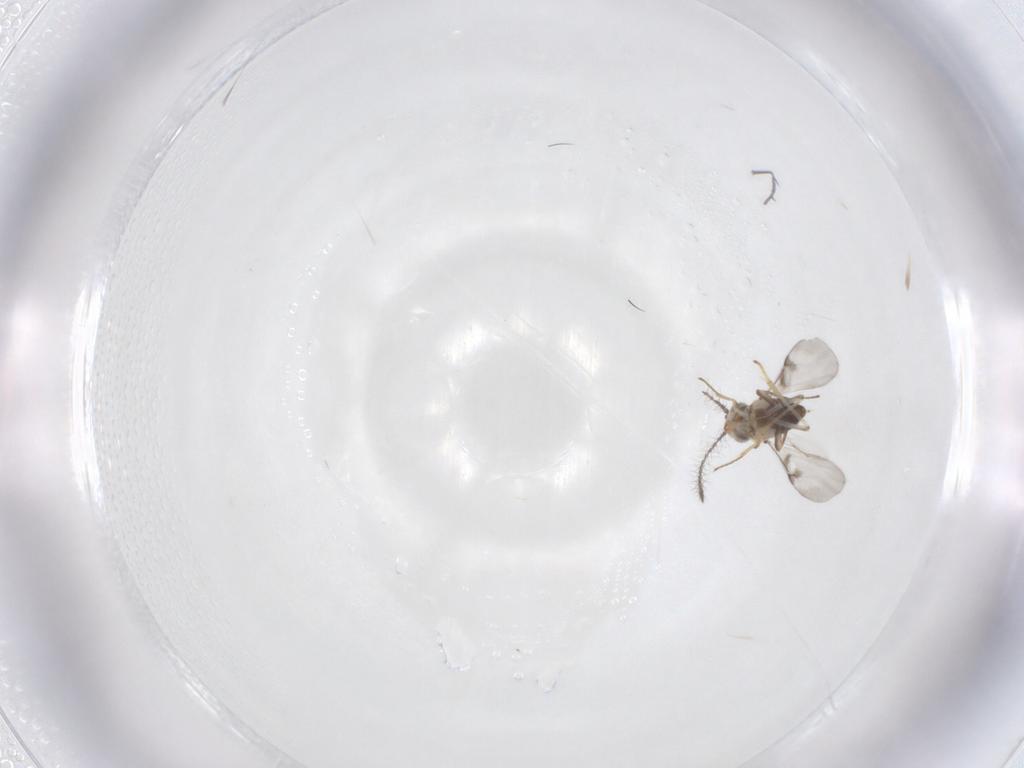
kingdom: Animalia
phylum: Arthropoda
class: Insecta
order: Hymenoptera
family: Encyrtidae
